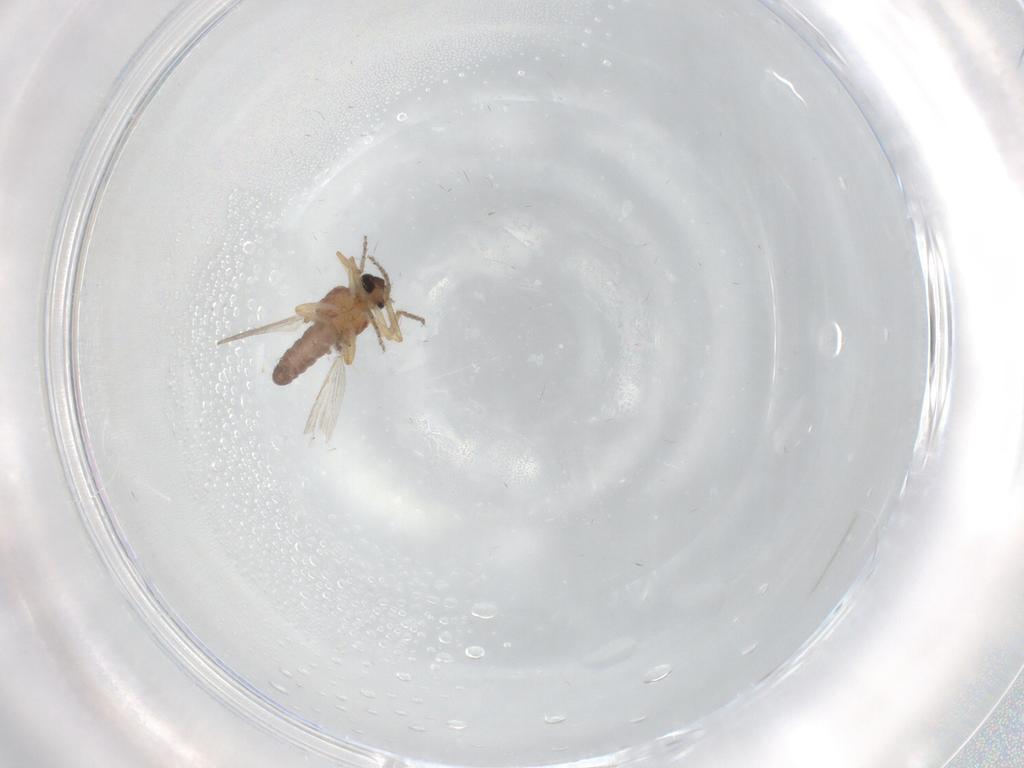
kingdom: Animalia
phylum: Arthropoda
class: Insecta
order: Diptera
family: Ceratopogonidae
